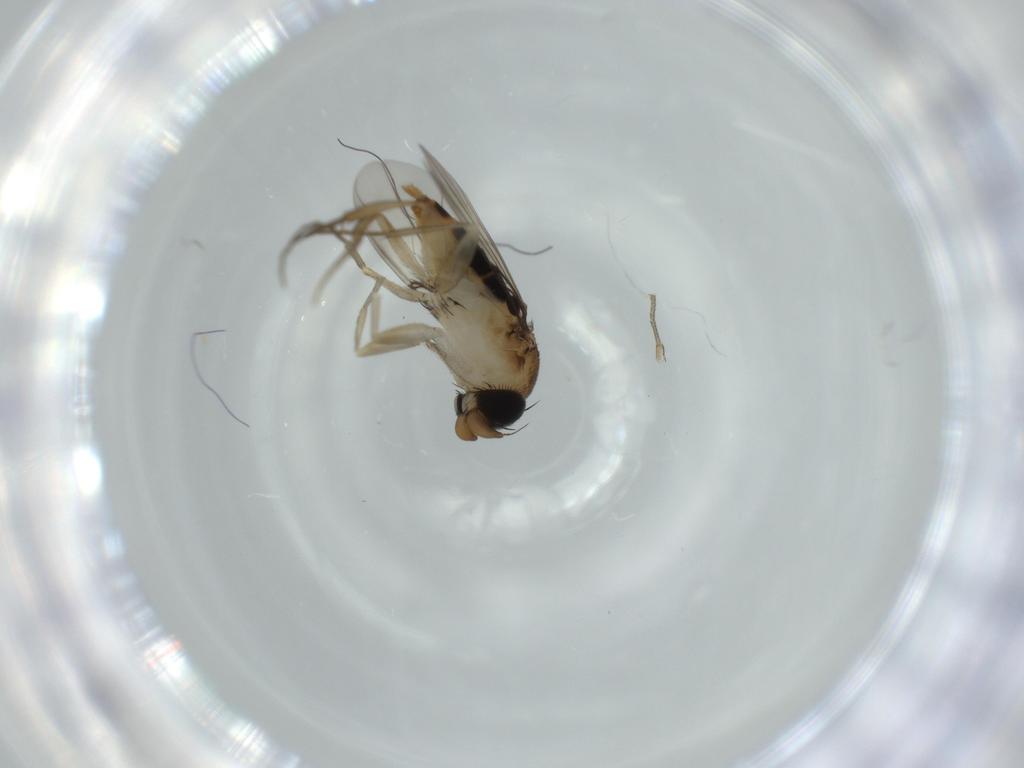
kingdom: Animalia
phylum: Arthropoda
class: Insecta
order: Diptera
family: Phoridae
